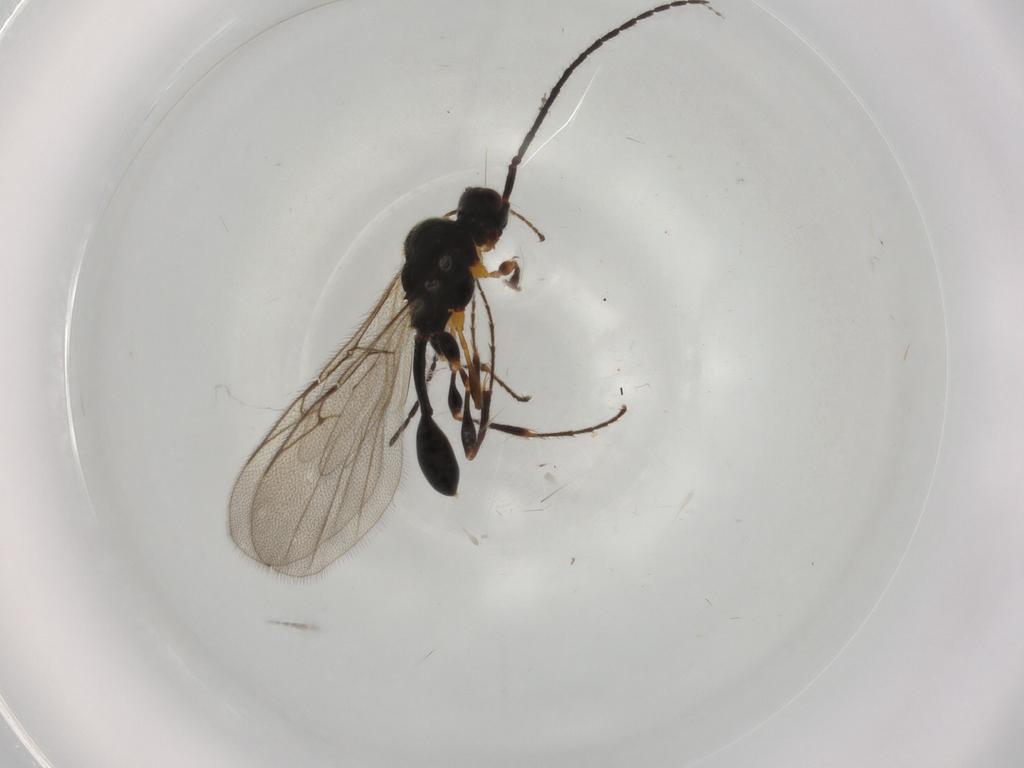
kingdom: Animalia
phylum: Arthropoda
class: Insecta
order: Hymenoptera
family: Diapriidae
